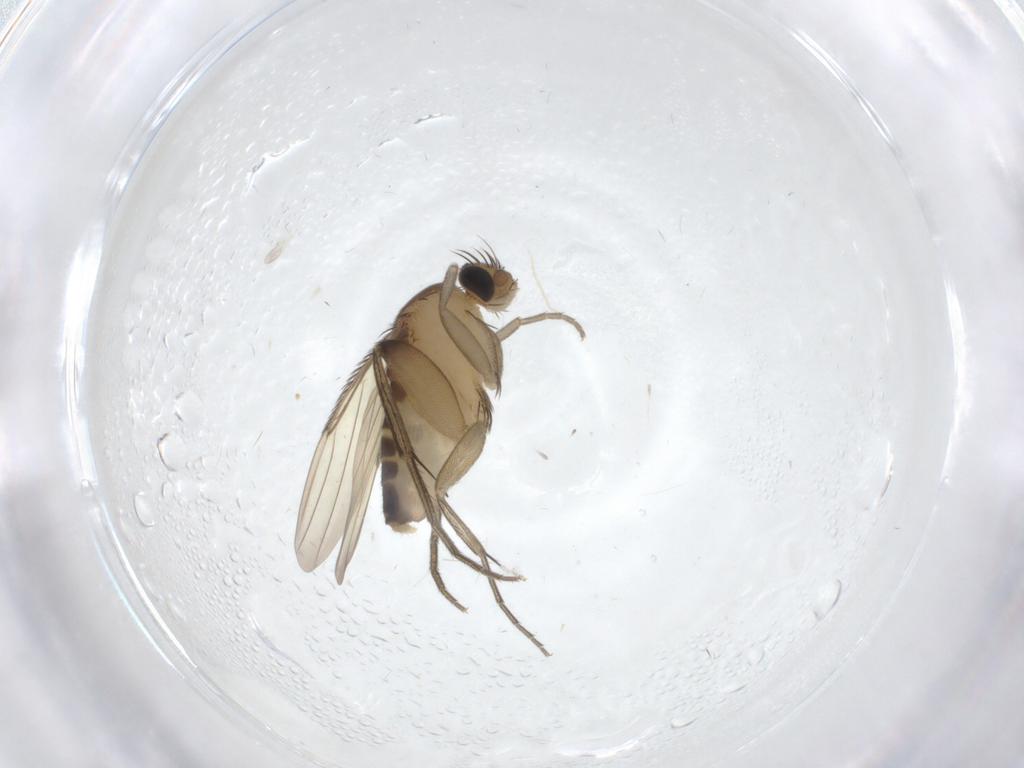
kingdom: Animalia
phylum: Arthropoda
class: Insecta
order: Diptera
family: Phoridae
